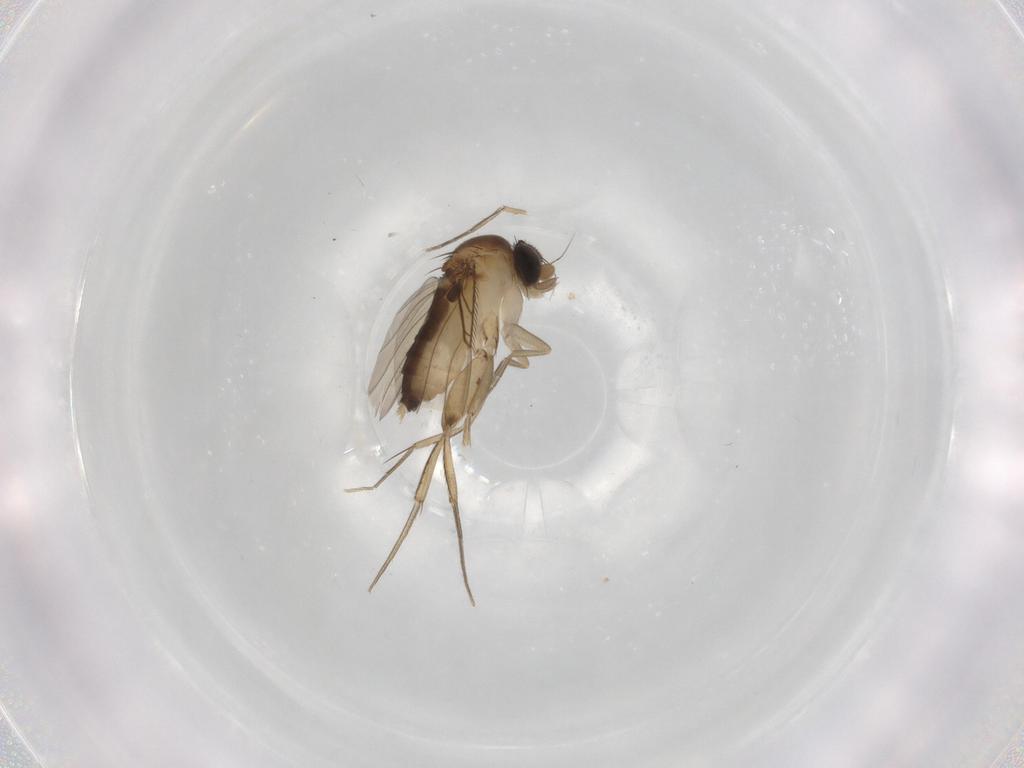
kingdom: Animalia
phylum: Arthropoda
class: Insecta
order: Diptera
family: Phoridae
